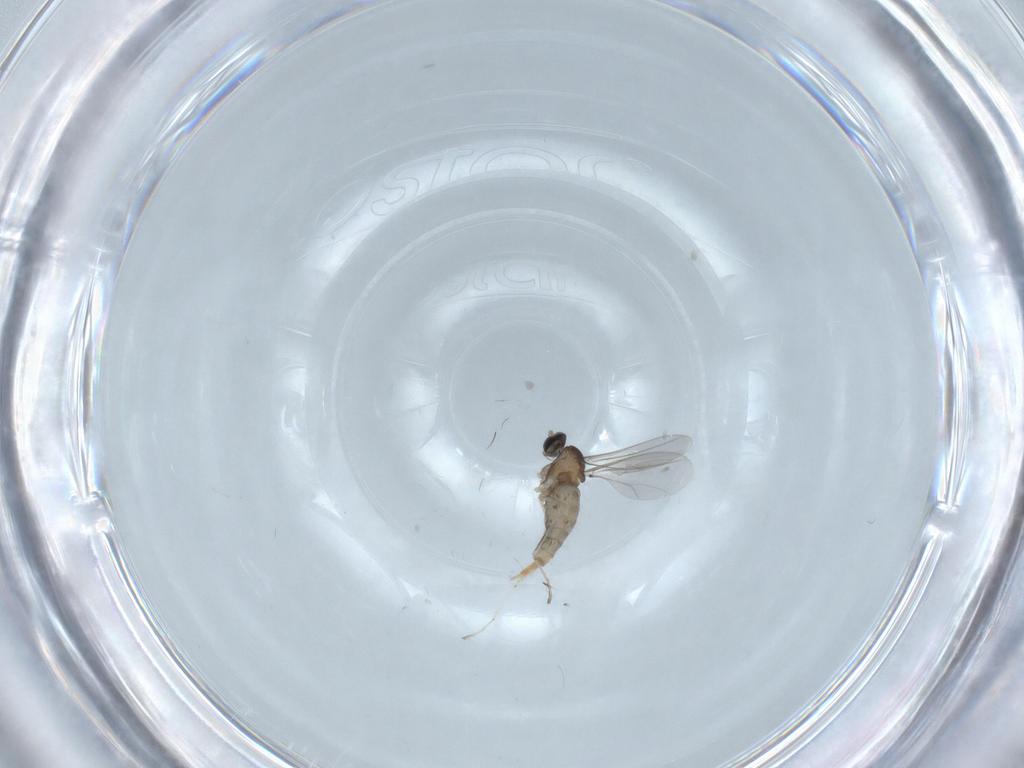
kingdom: Animalia
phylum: Arthropoda
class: Insecta
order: Diptera
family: Cecidomyiidae
